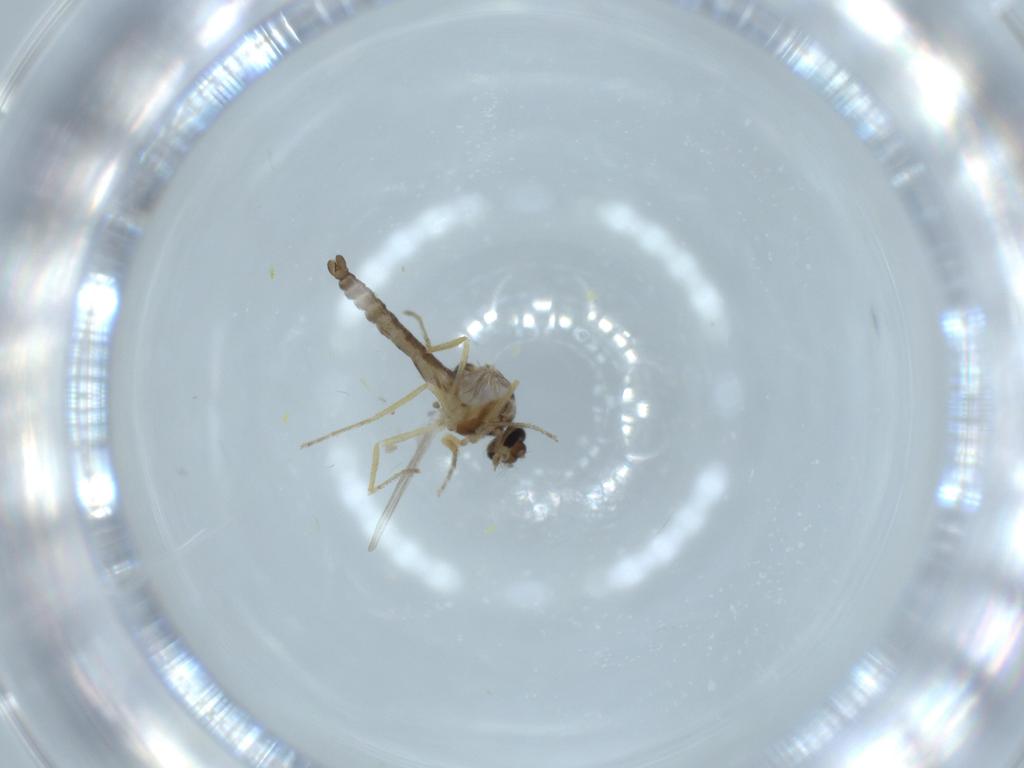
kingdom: Animalia
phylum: Arthropoda
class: Insecta
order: Diptera
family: Ceratopogonidae
